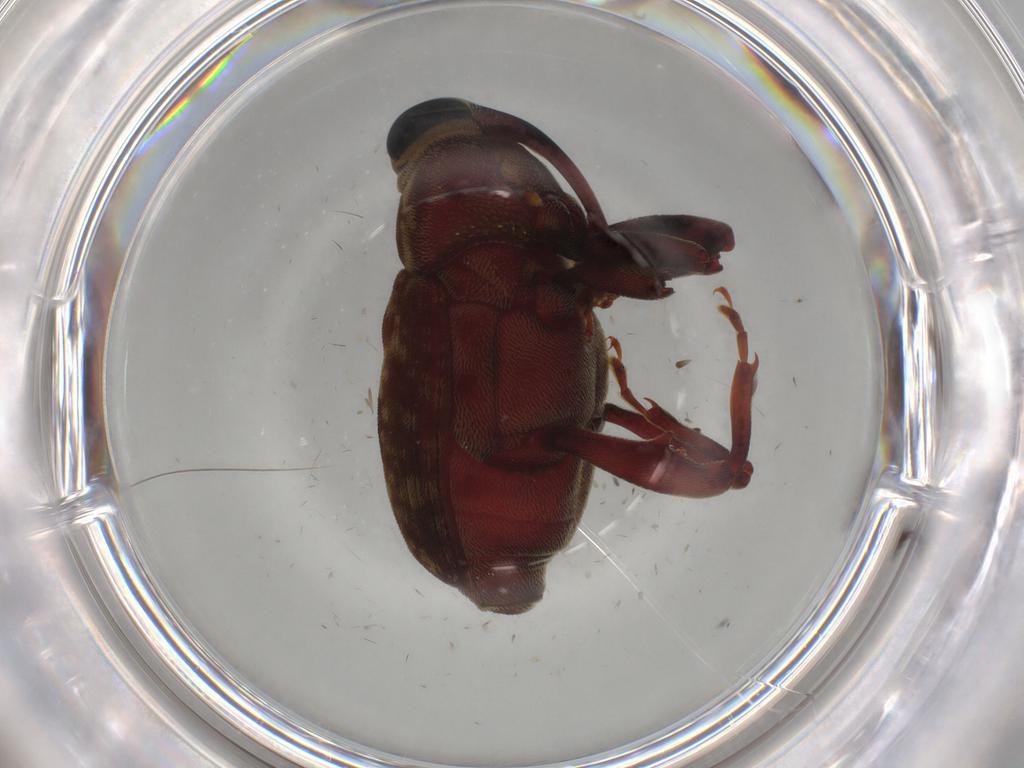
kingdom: Animalia
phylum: Arthropoda
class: Insecta
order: Coleoptera
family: Curculionidae
